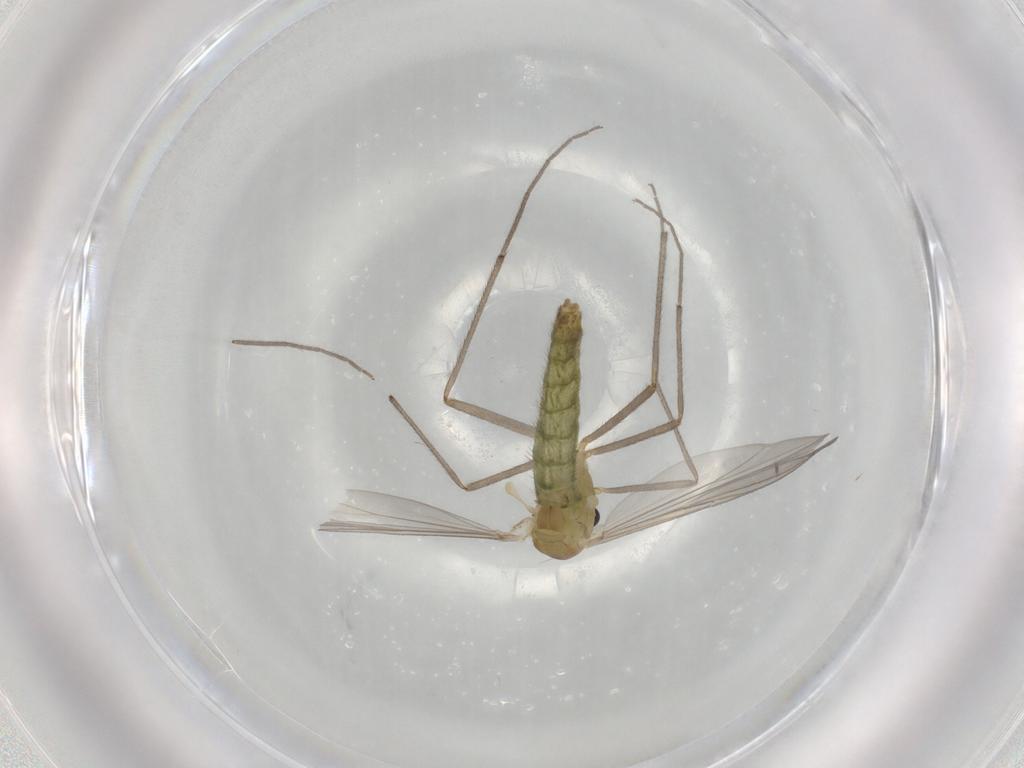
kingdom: Animalia
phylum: Arthropoda
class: Insecta
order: Diptera
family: Chironomidae
